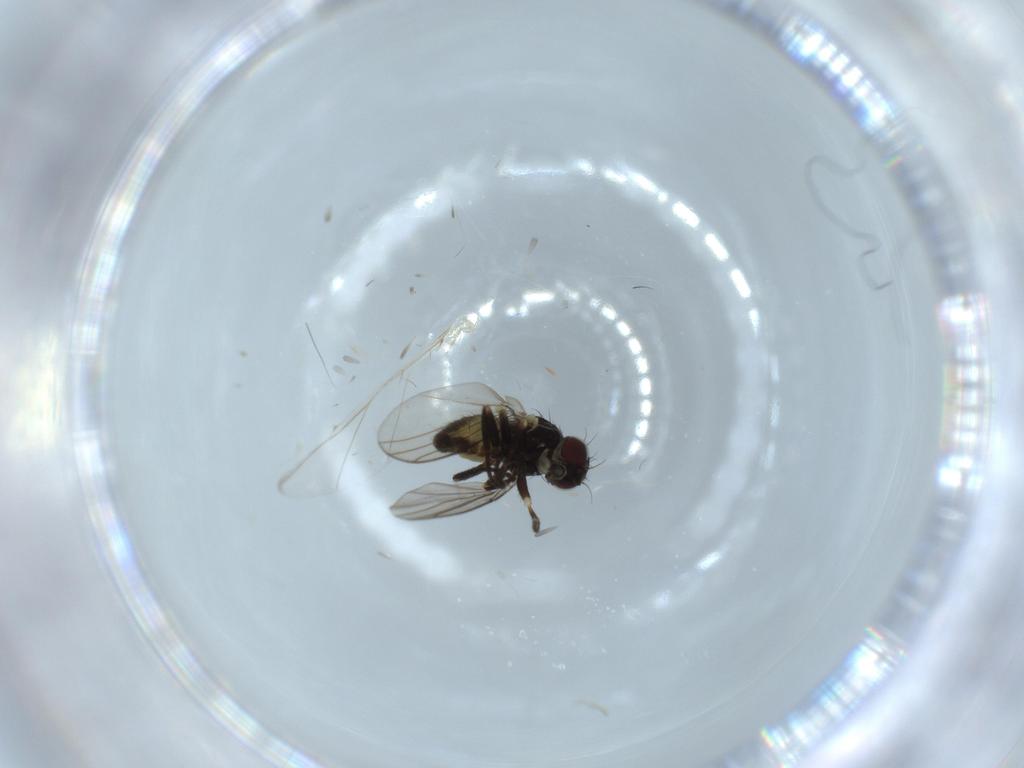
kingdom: Animalia
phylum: Arthropoda
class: Insecta
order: Diptera
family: Agromyzidae
